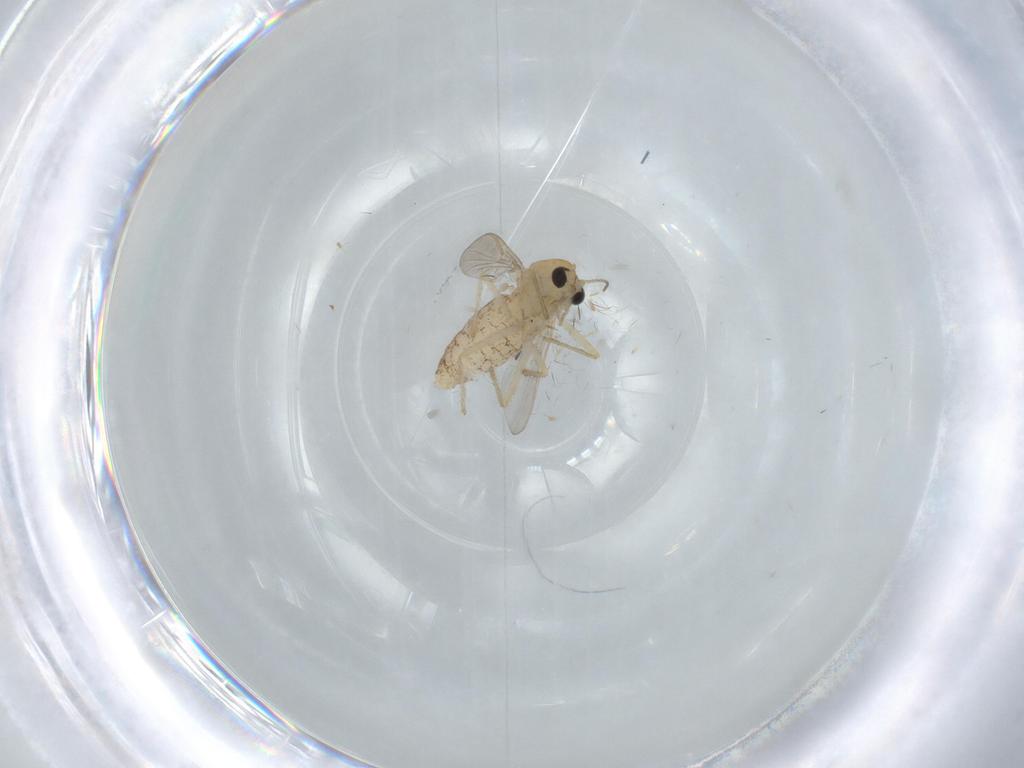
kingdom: Animalia
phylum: Arthropoda
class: Insecta
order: Diptera
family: Chironomidae
